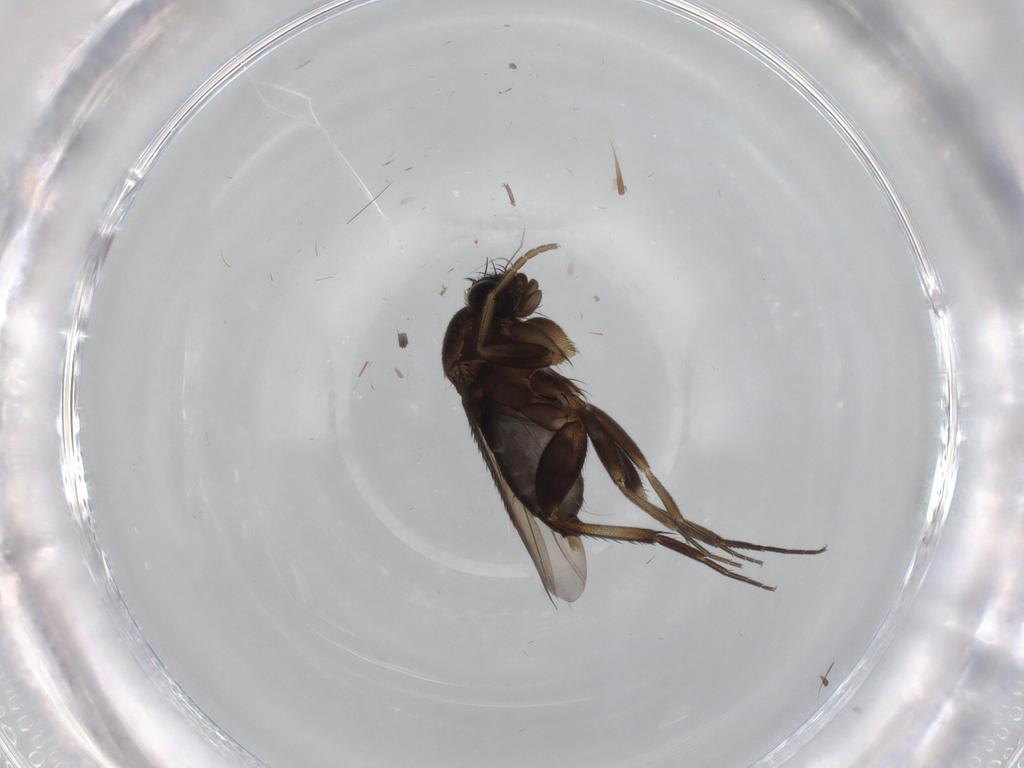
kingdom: Animalia
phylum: Arthropoda
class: Insecta
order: Diptera
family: Phoridae
